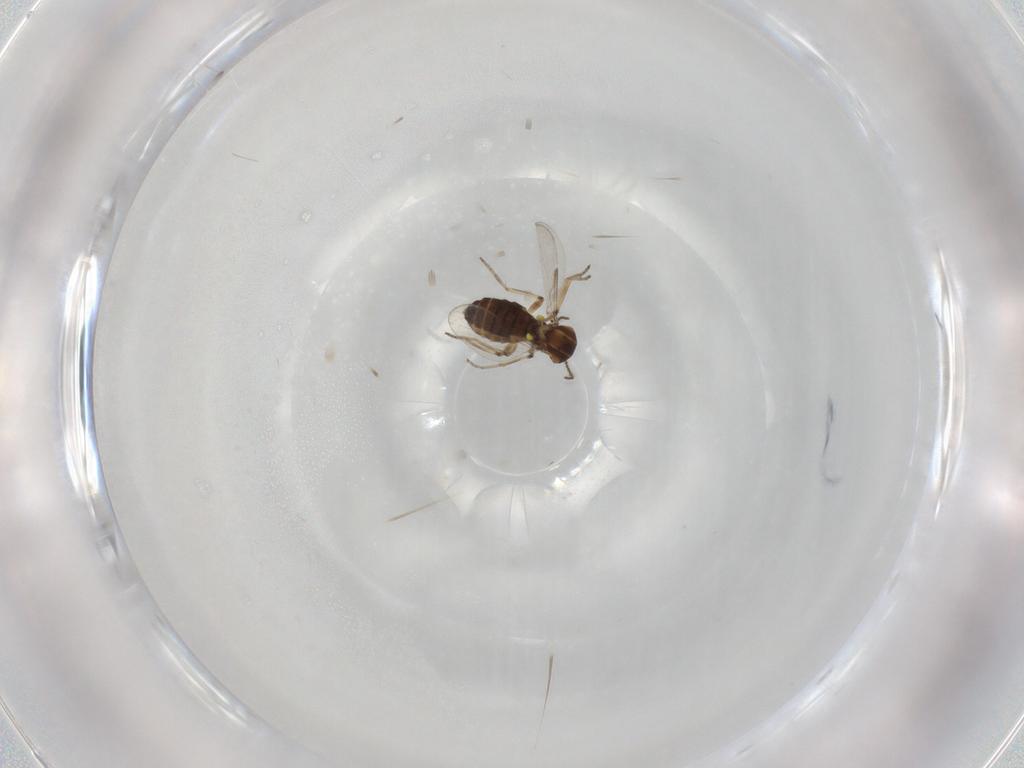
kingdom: Animalia
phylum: Arthropoda
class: Insecta
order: Diptera
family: Ceratopogonidae
